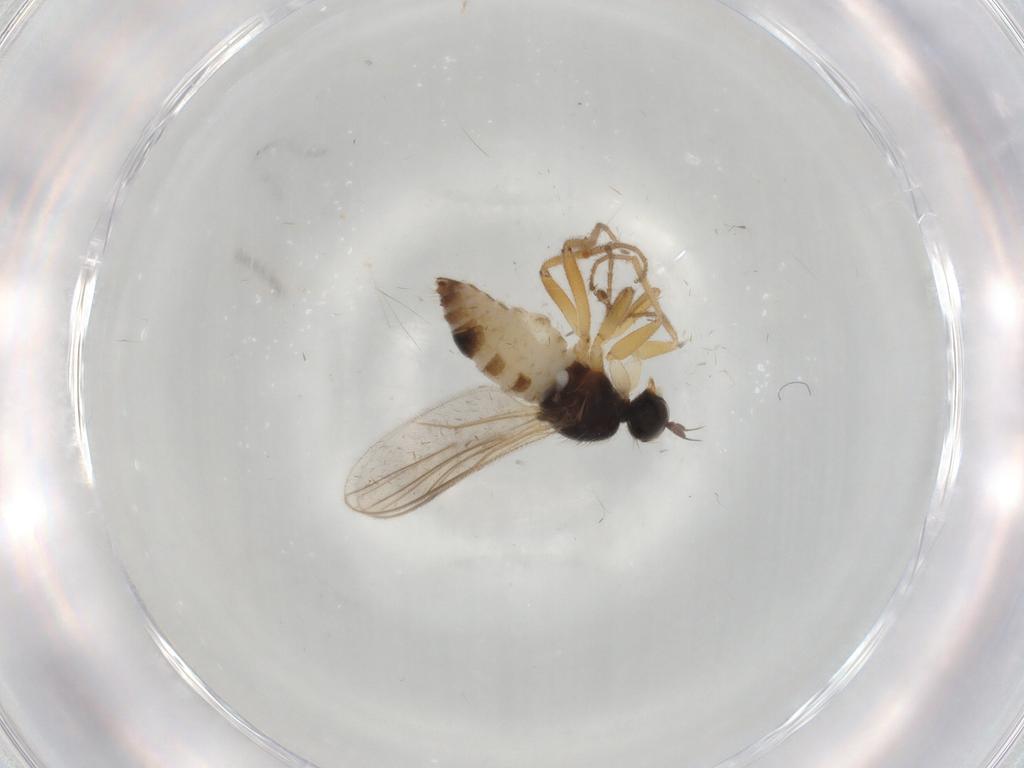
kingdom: Animalia
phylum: Arthropoda
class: Insecta
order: Diptera
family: Hybotidae
